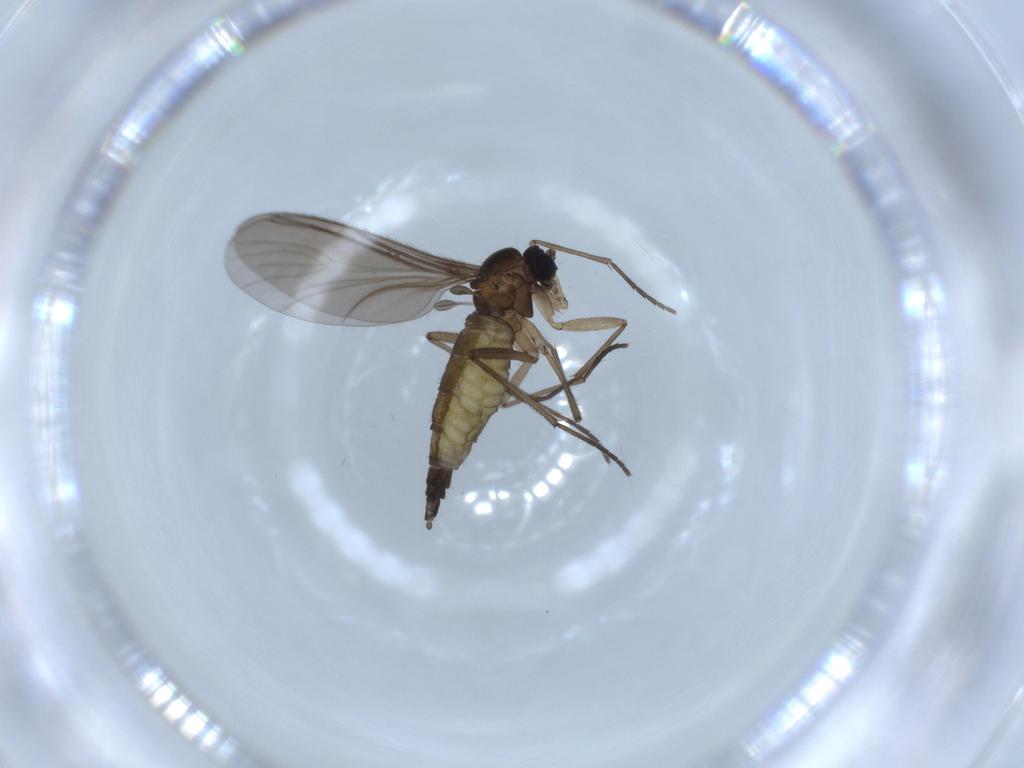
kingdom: Animalia
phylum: Arthropoda
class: Insecta
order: Diptera
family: Sciaridae
